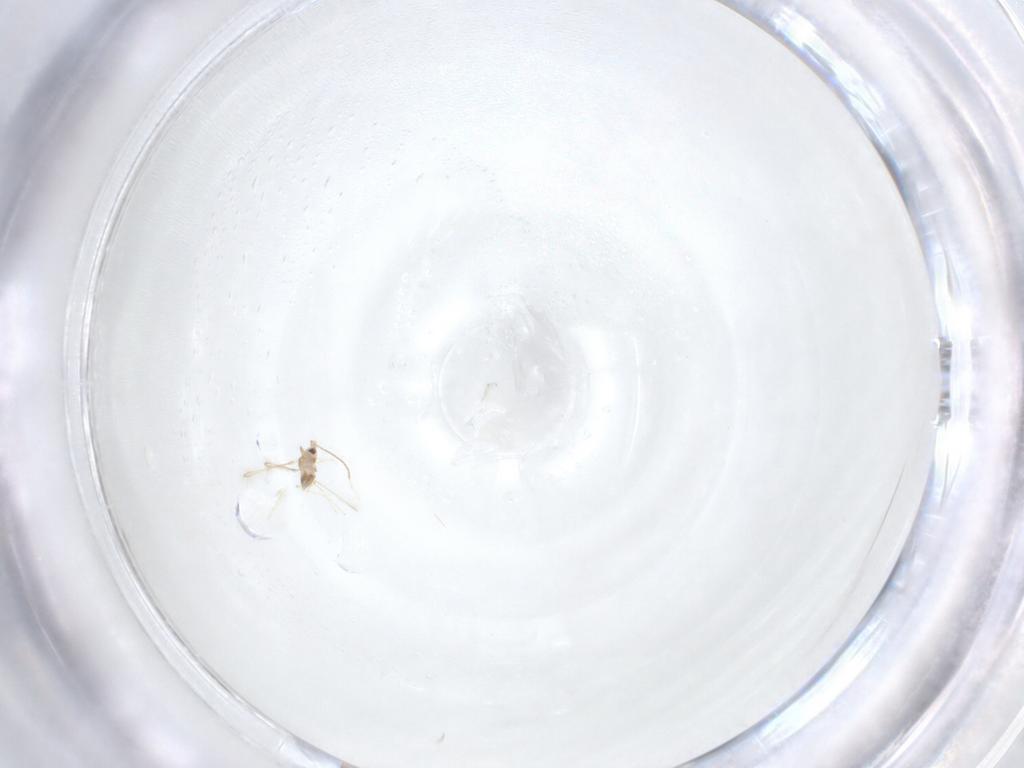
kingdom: Animalia
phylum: Arthropoda
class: Insecta
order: Hymenoptera
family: Mymaridae
